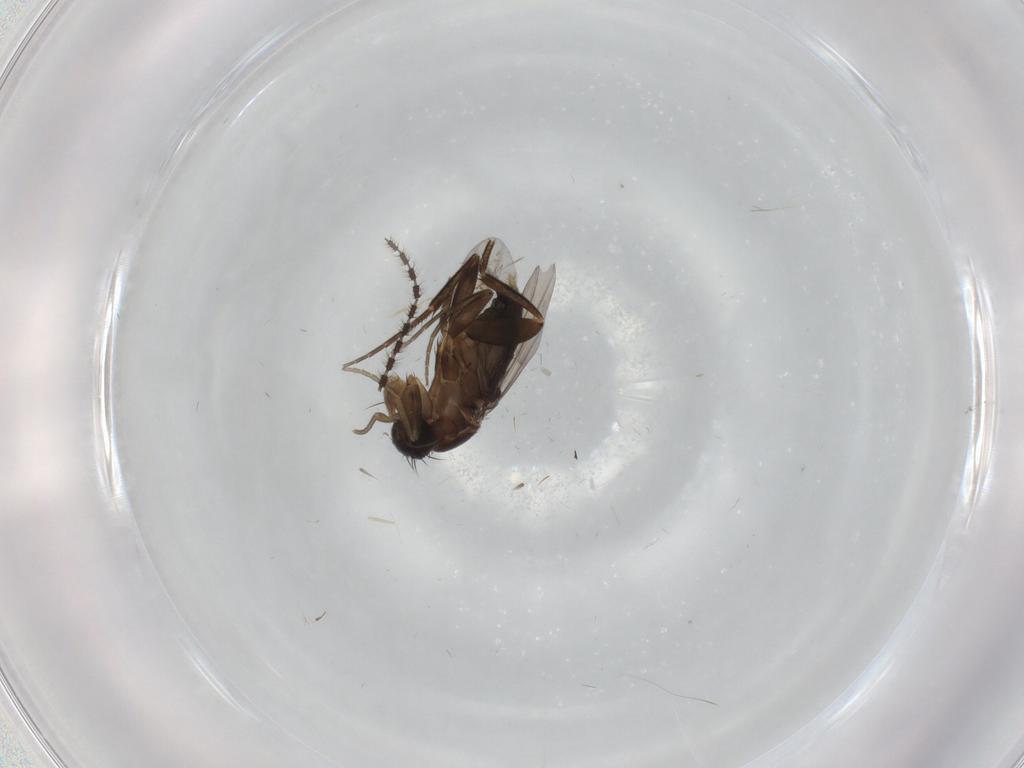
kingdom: Animalia
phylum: Arthropoda
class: Insecta
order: Diptera
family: Phoridae
